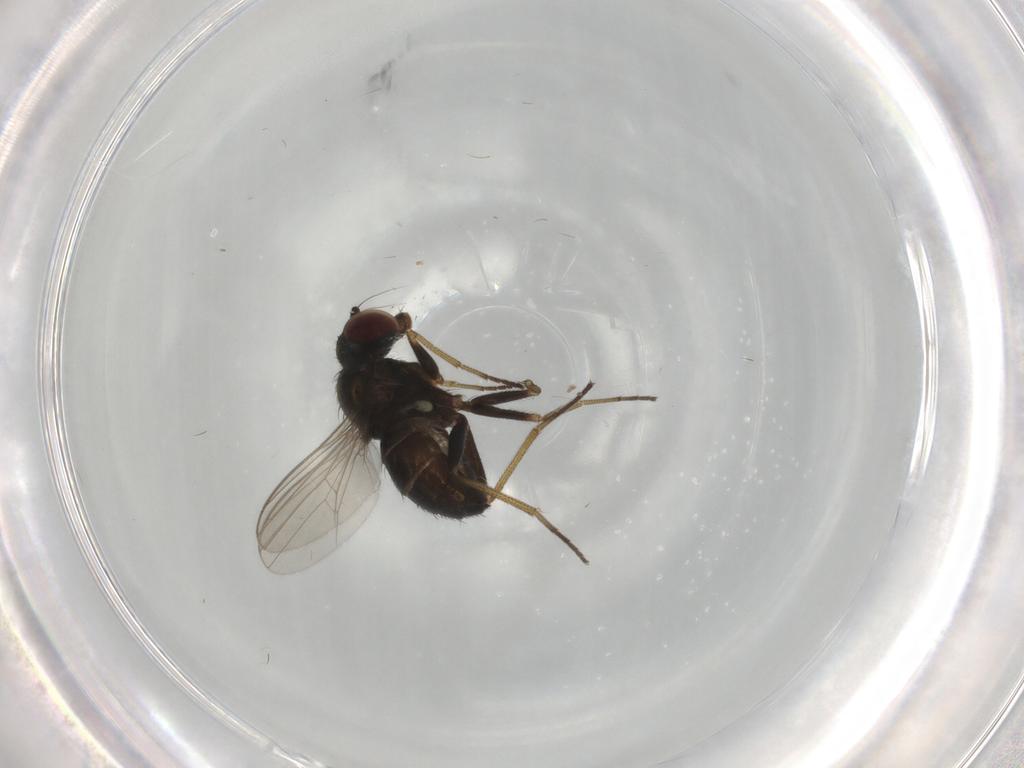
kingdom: Animalia
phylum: Arthropoda
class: Insecta
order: Diptera
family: Dolichopodidae
